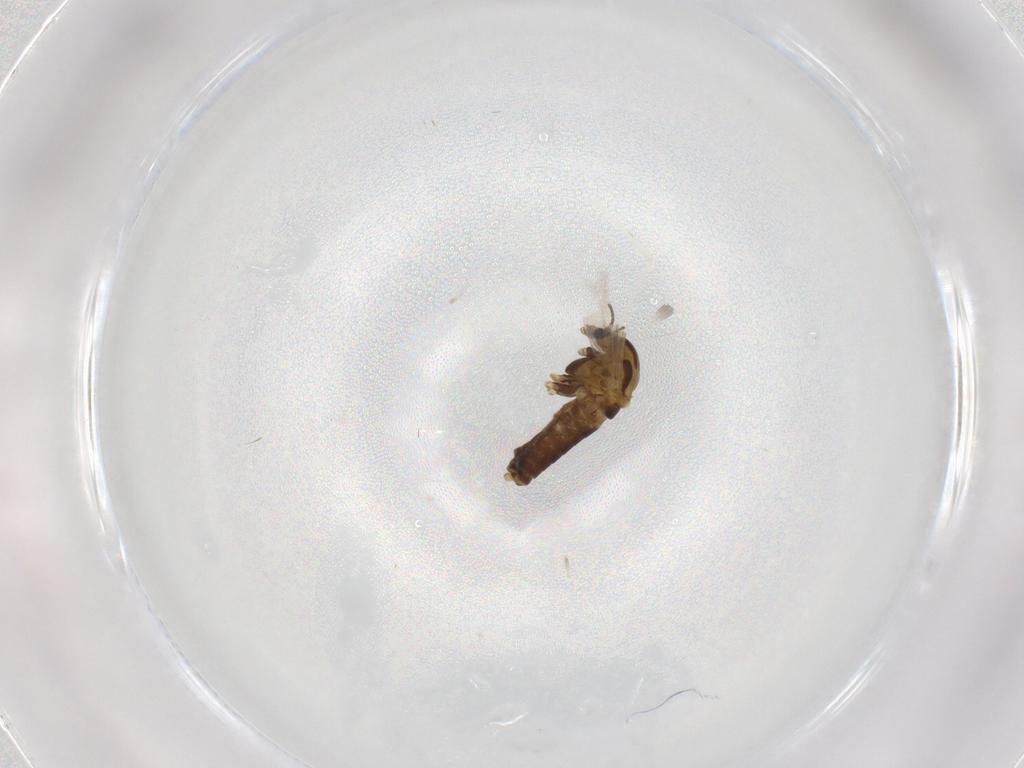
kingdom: Animalia
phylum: Arthropoda
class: Insecta
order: Diptera
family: Chironomidae
